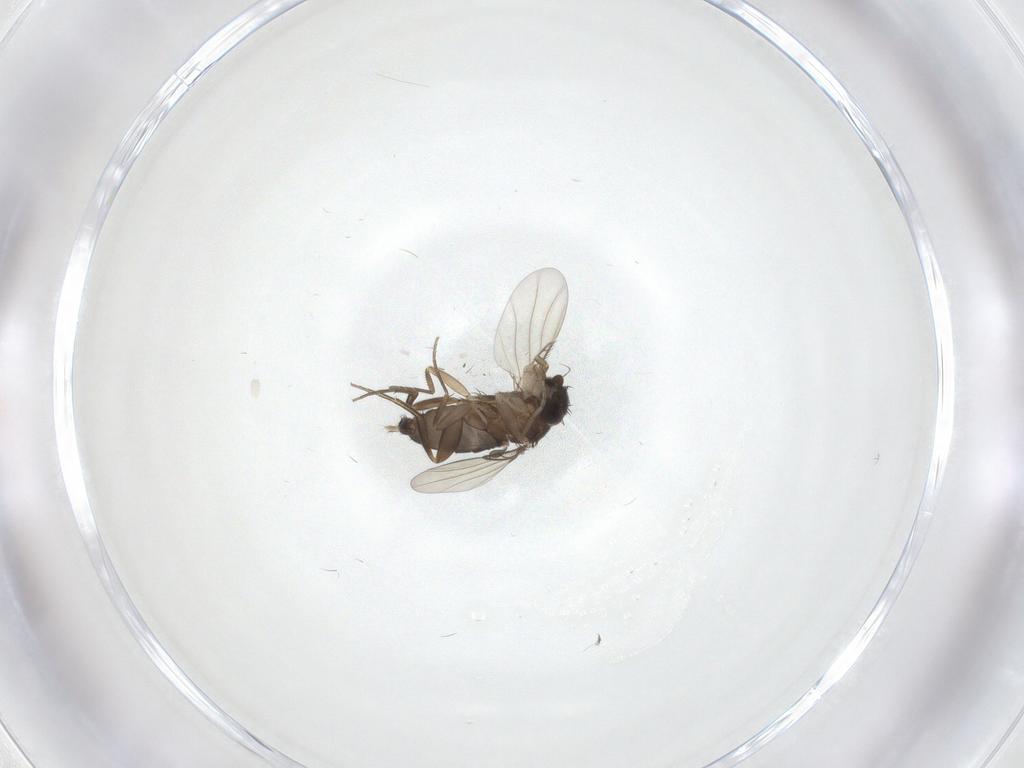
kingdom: Animalia
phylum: Arthropoda
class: Insecta
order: Diptera
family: Phoridae
